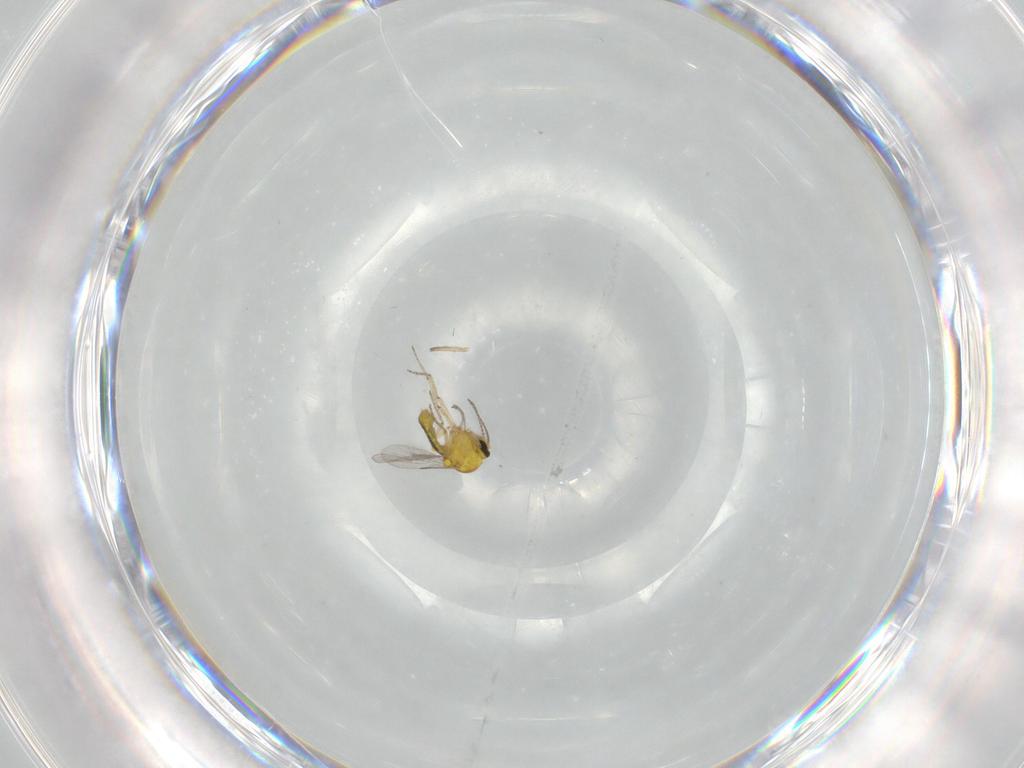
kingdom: Animalia
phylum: Arthropoda
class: Insecta
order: Diptera
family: Ceratopogonidae
